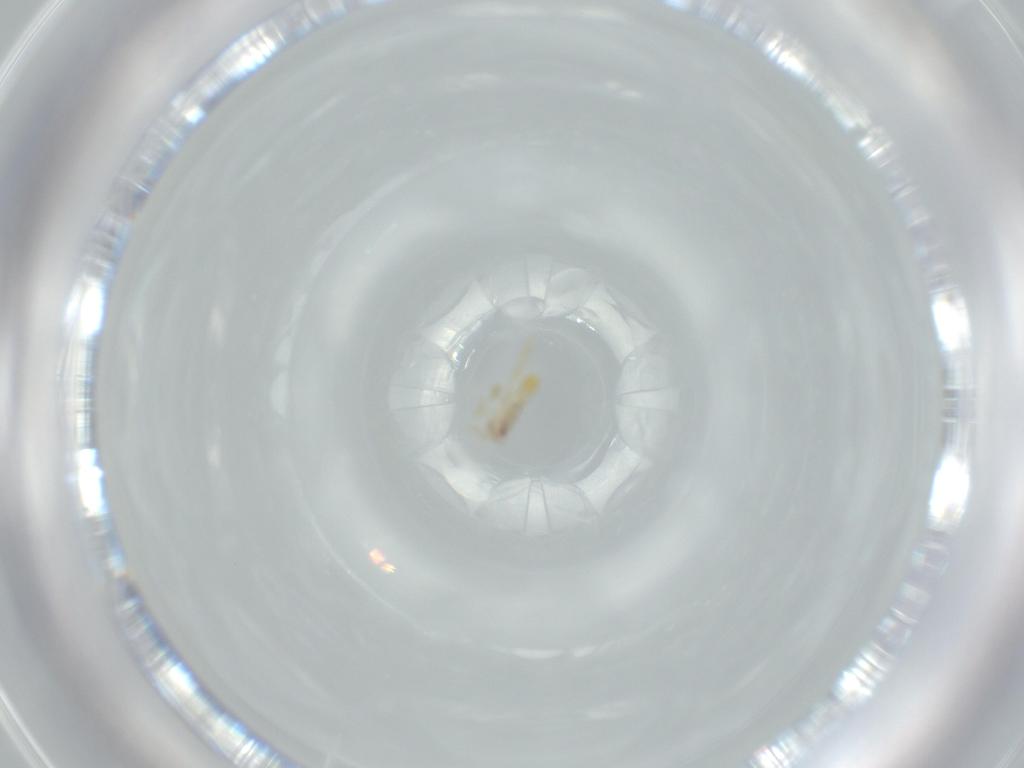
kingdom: Animalia
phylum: Arthropoda
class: Insecta
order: Hemiptera
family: Delphacidae
